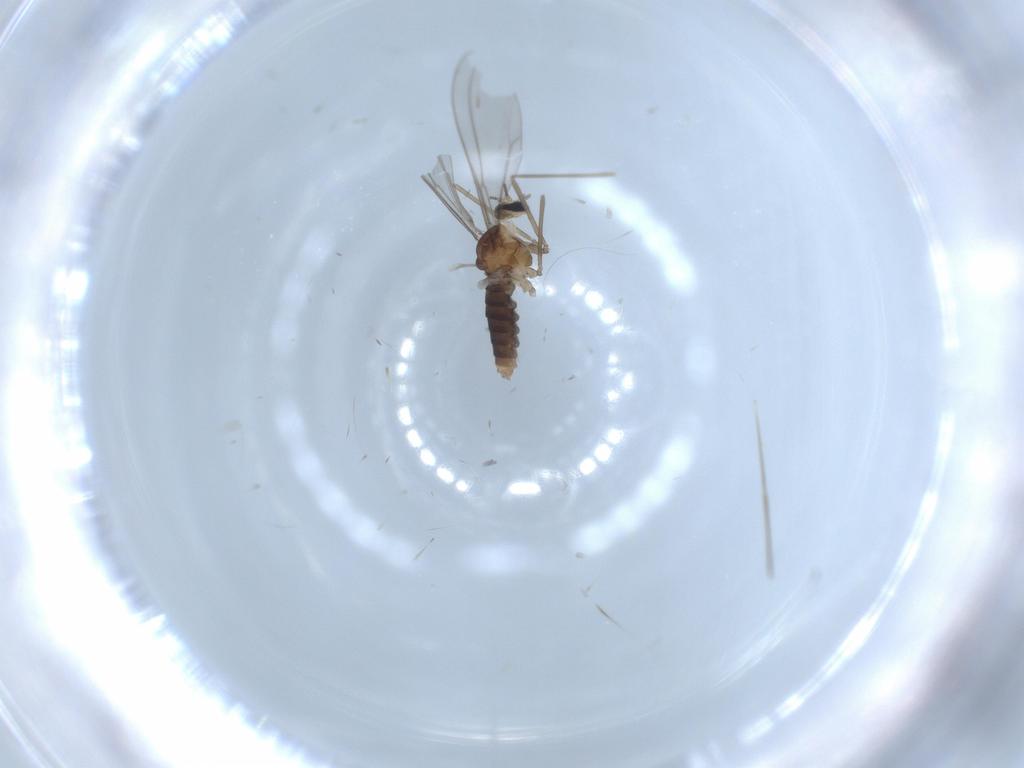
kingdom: Animalia
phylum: Arthropoda
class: Insecta
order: Diptera
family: Cecidomyiidae
